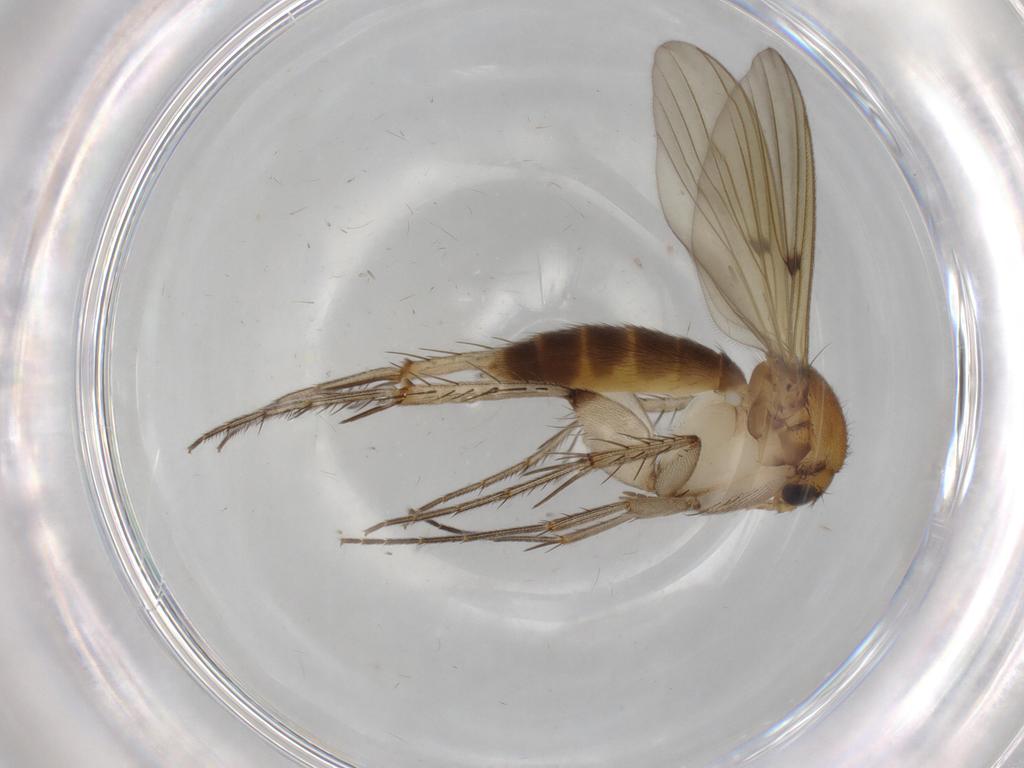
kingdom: Animalia
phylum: Arthropoda
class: Insecta
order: Diptera
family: Mycetophilidae
